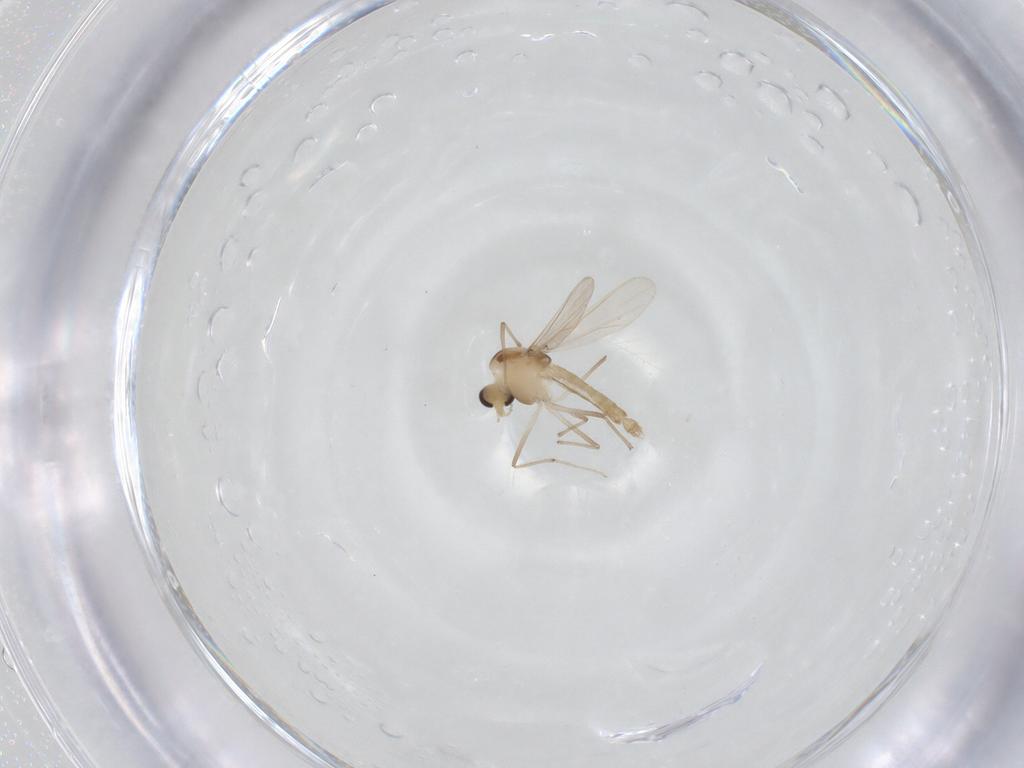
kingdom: Animalia
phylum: Arthropoda
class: Insecta
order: Diptera
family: Chironomidae
